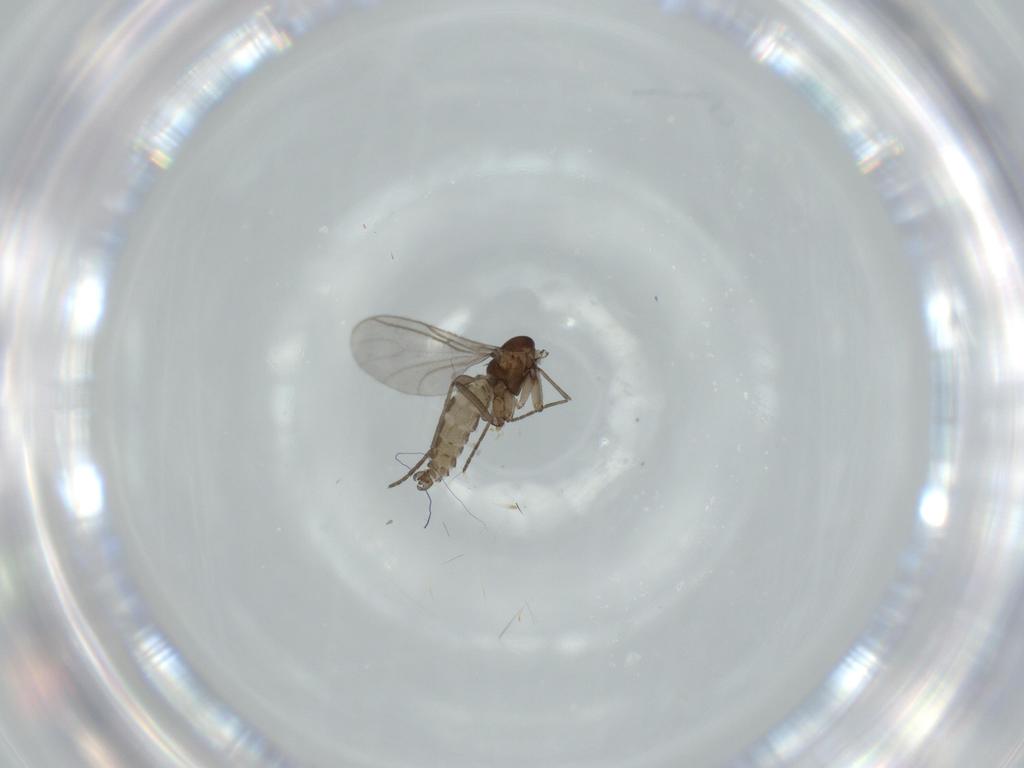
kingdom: Animalia
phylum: Arthropoda
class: Insecta
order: Diptera
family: Ceratopogonidae
